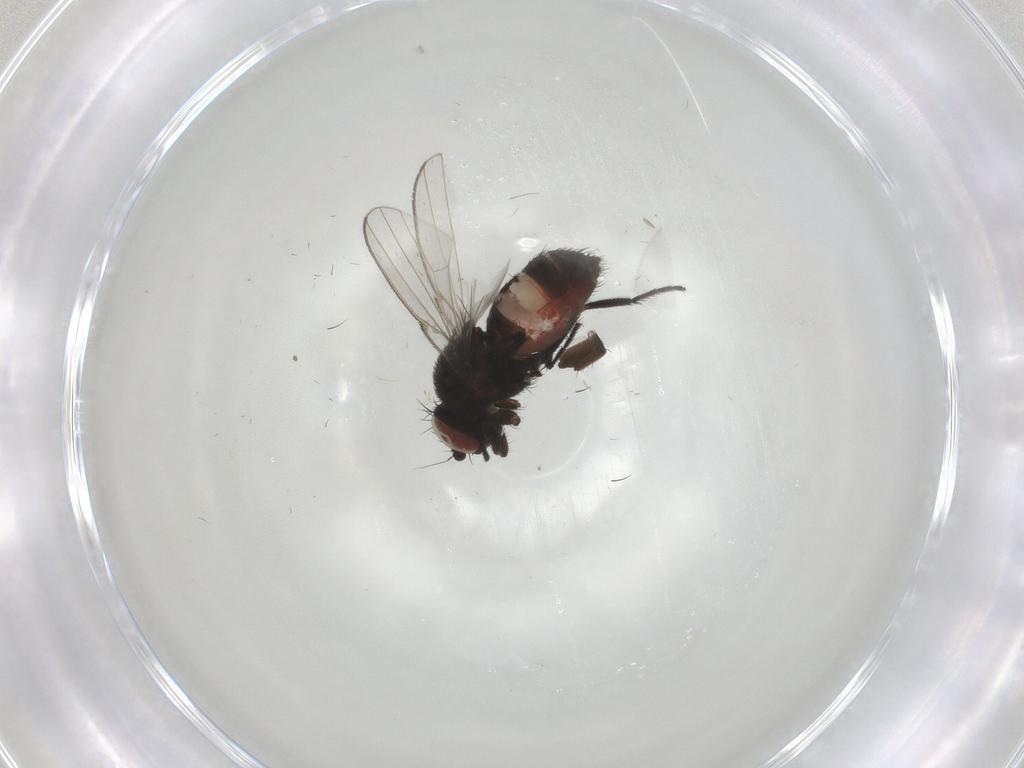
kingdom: Animalia
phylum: Arthropoda
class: Insecta
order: Diptera
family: Milichiidae
